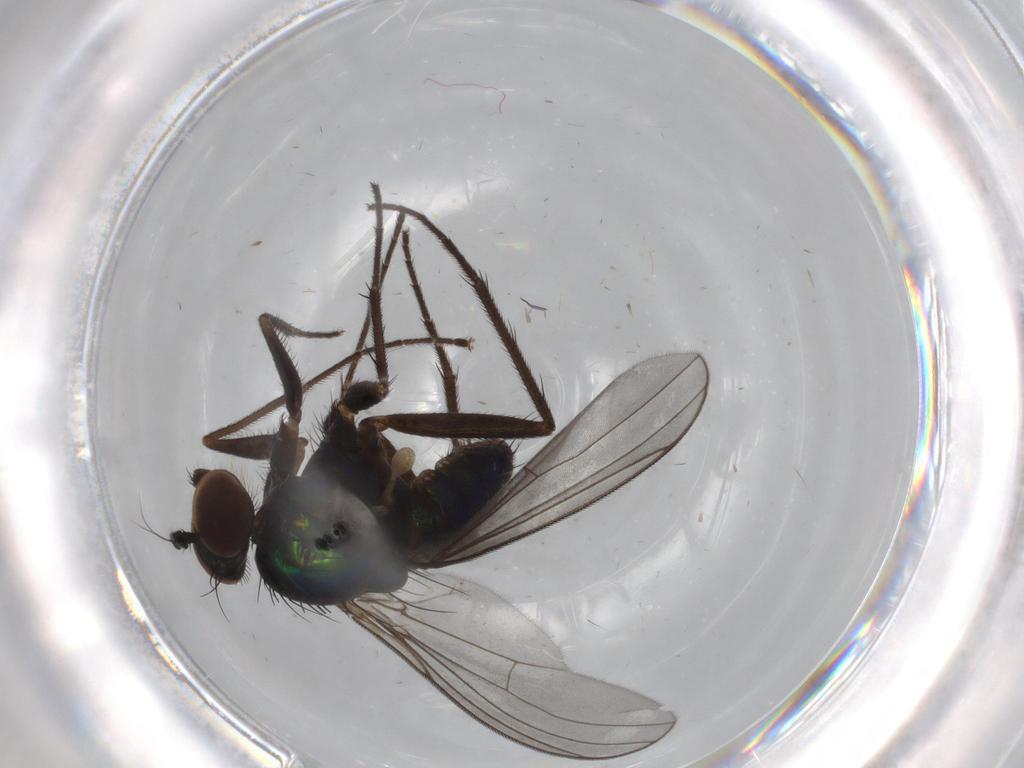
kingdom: Animalia
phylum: Arthropoda
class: Insecta
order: Diptera
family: Dolichopodidae
